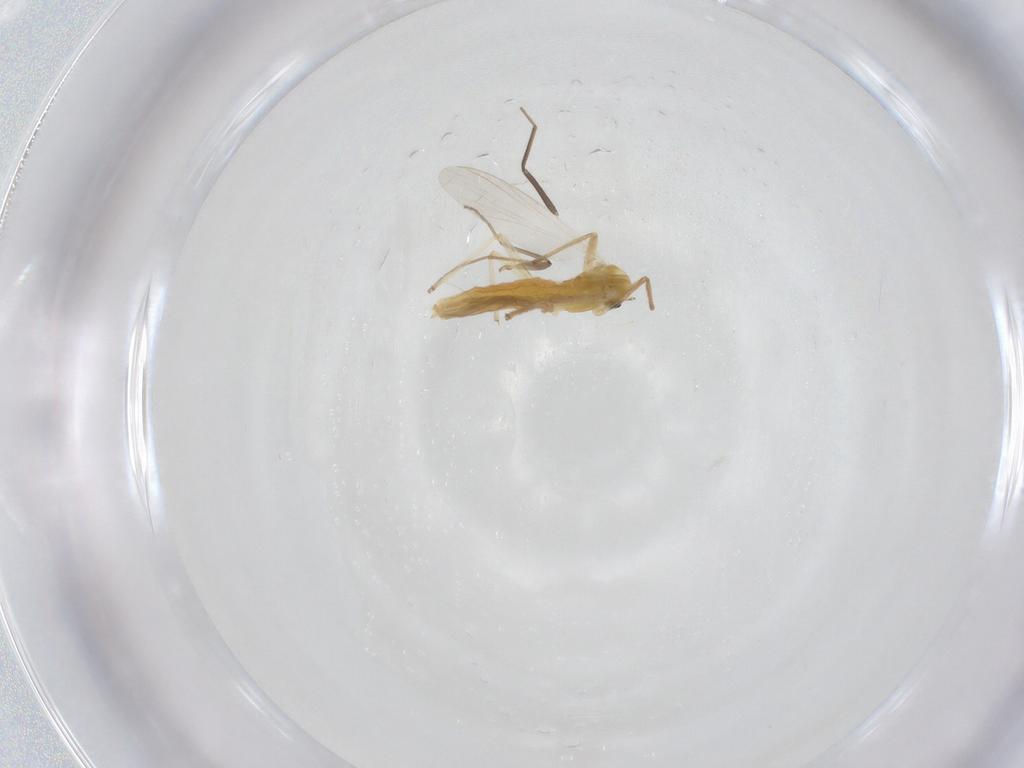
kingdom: Animalia
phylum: Arthropoda
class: Insecta
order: Diptera
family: Chironomidae
